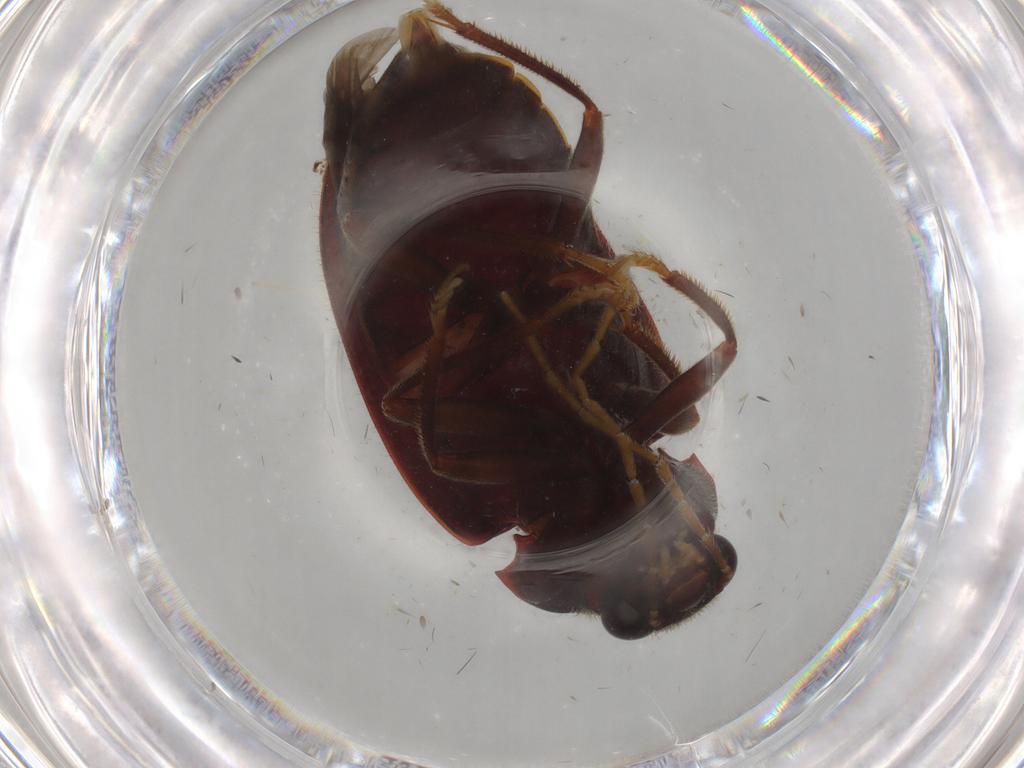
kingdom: Animalia
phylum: Arthropoda
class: Insecta
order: Coleoptera
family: Ptilodactylidae
